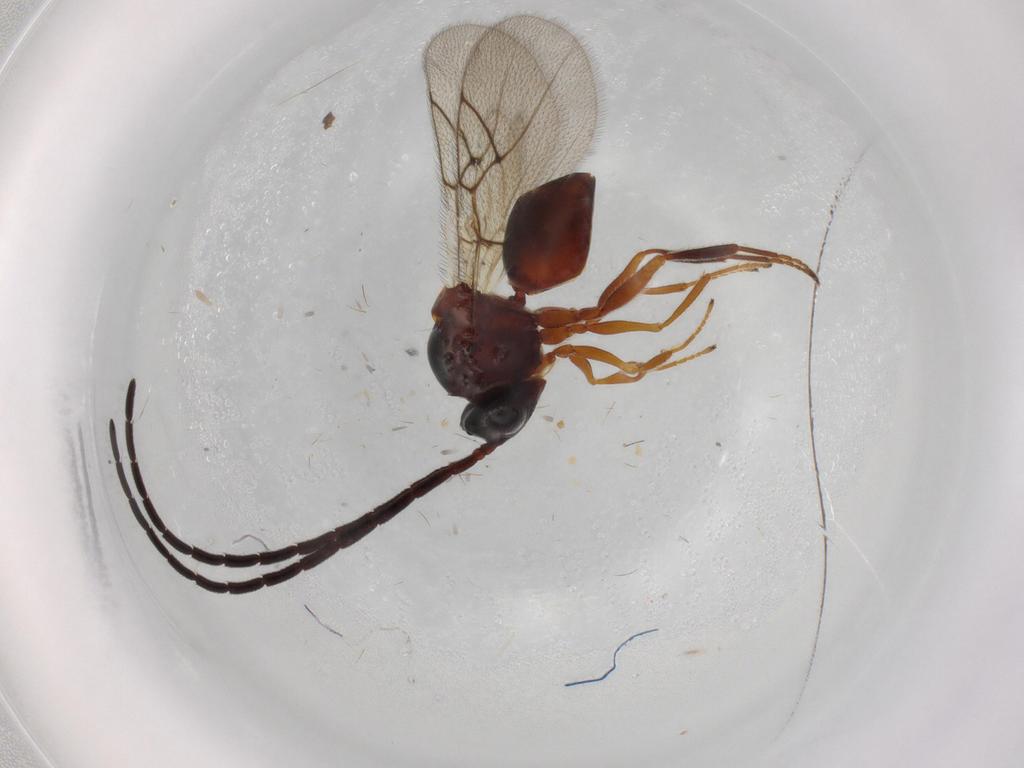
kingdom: Animalia
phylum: Arthropoda
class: Insecta
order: Hymenoptera
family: Figitidae
